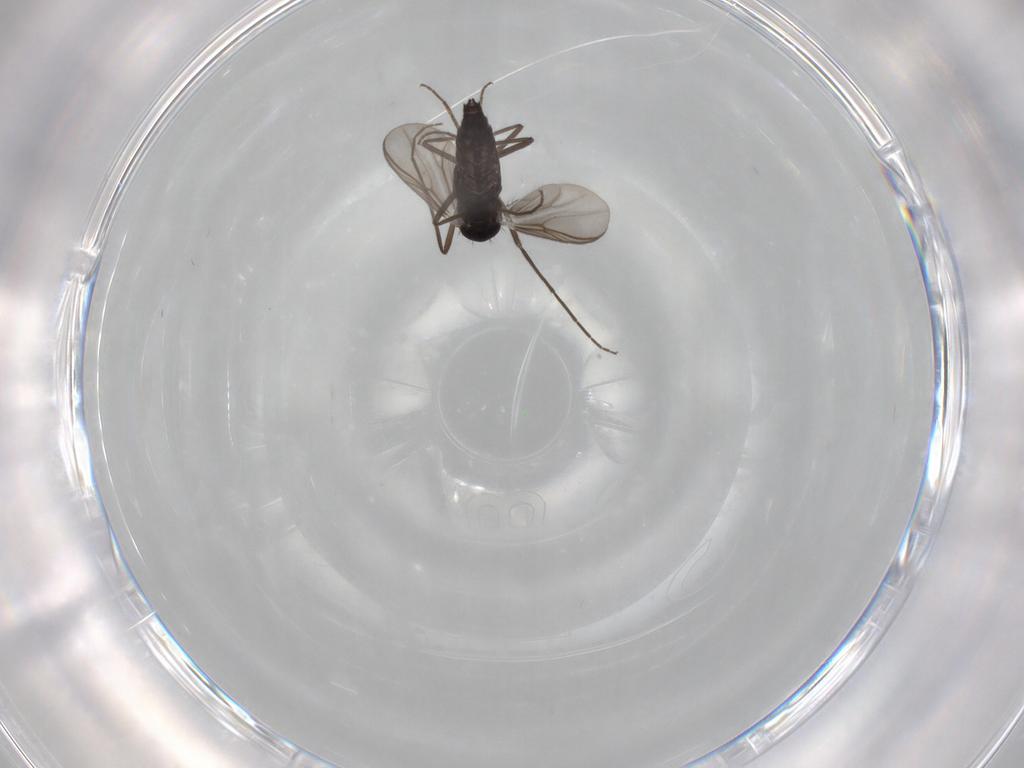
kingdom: Animalia
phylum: Arthropoda
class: Insecta
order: Diptera
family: Chironomidae
